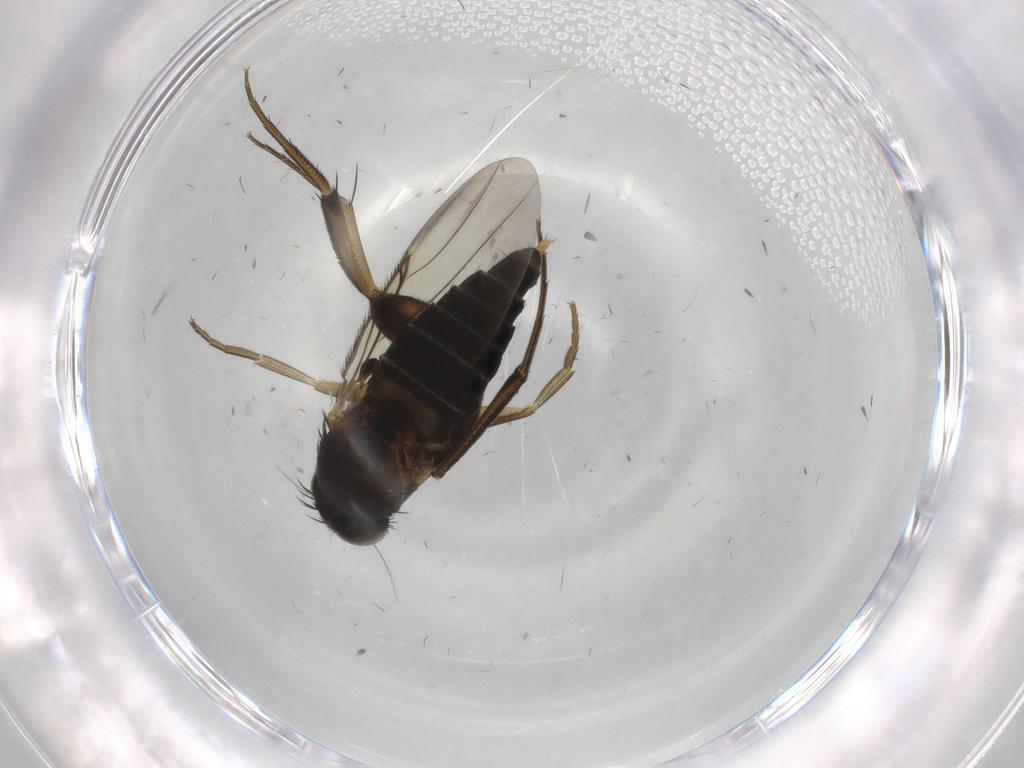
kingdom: Animalia
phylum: Arthropoda
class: Insecta
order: Diptera
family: Phoridae
